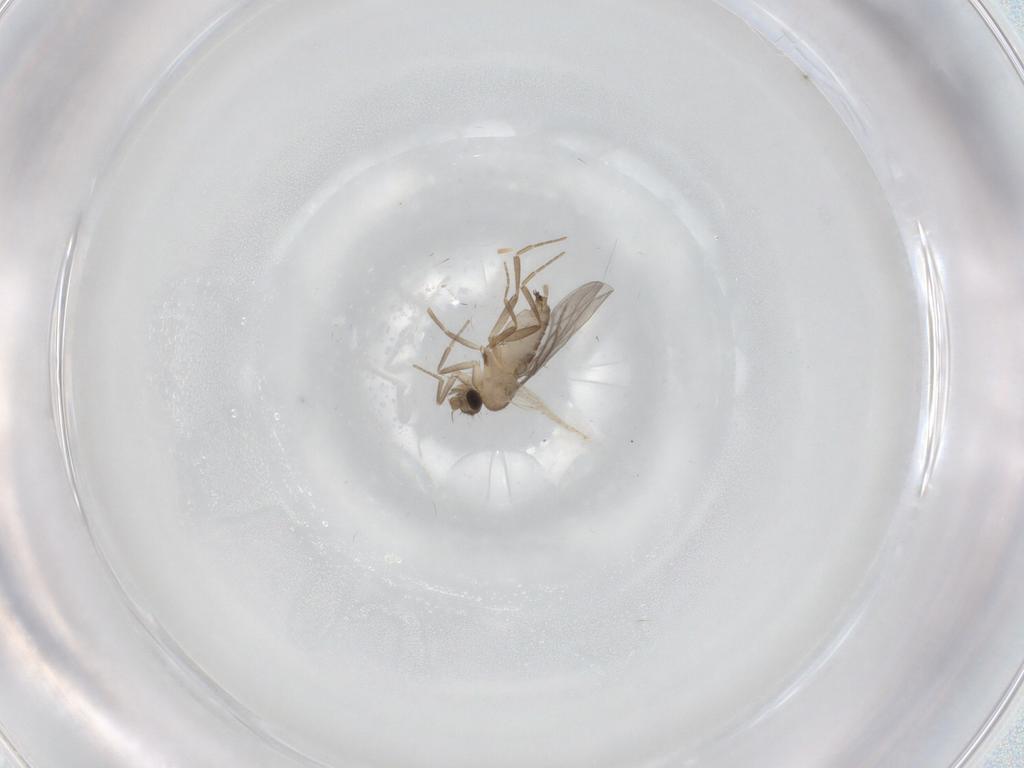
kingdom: Animalia
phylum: Arthropoda
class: Insecta
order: Diptera
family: Cecidomyiidae
